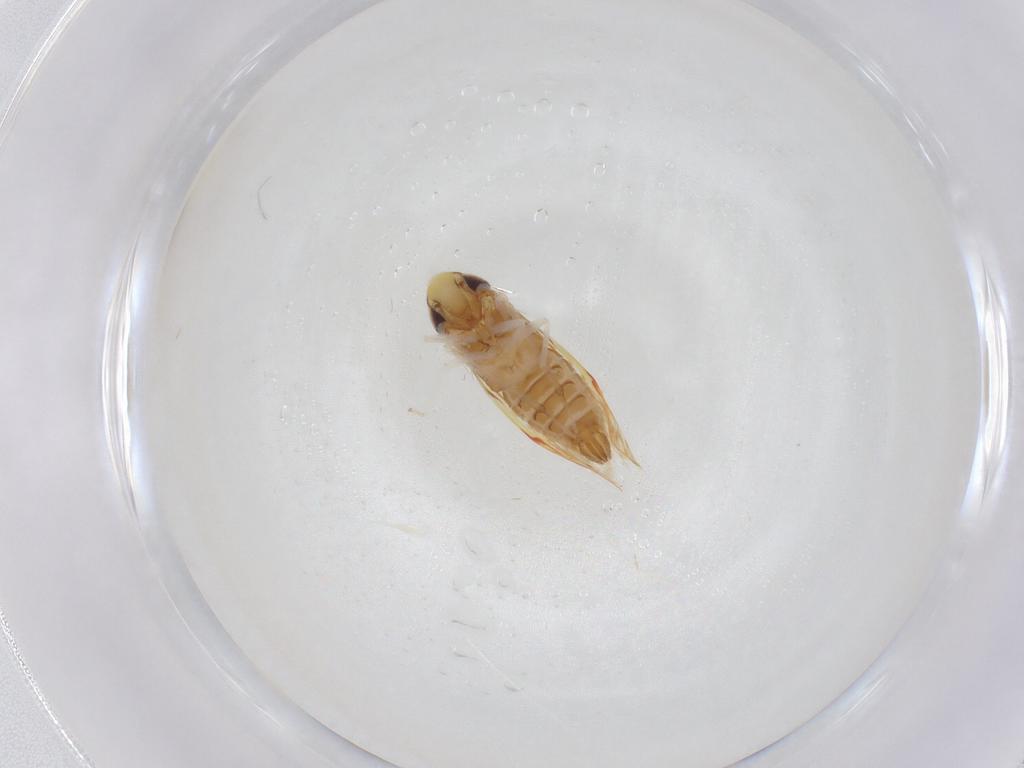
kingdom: Animalia
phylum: Arthropoda
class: Insecta
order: Hemiptera
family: Cicadellidae
